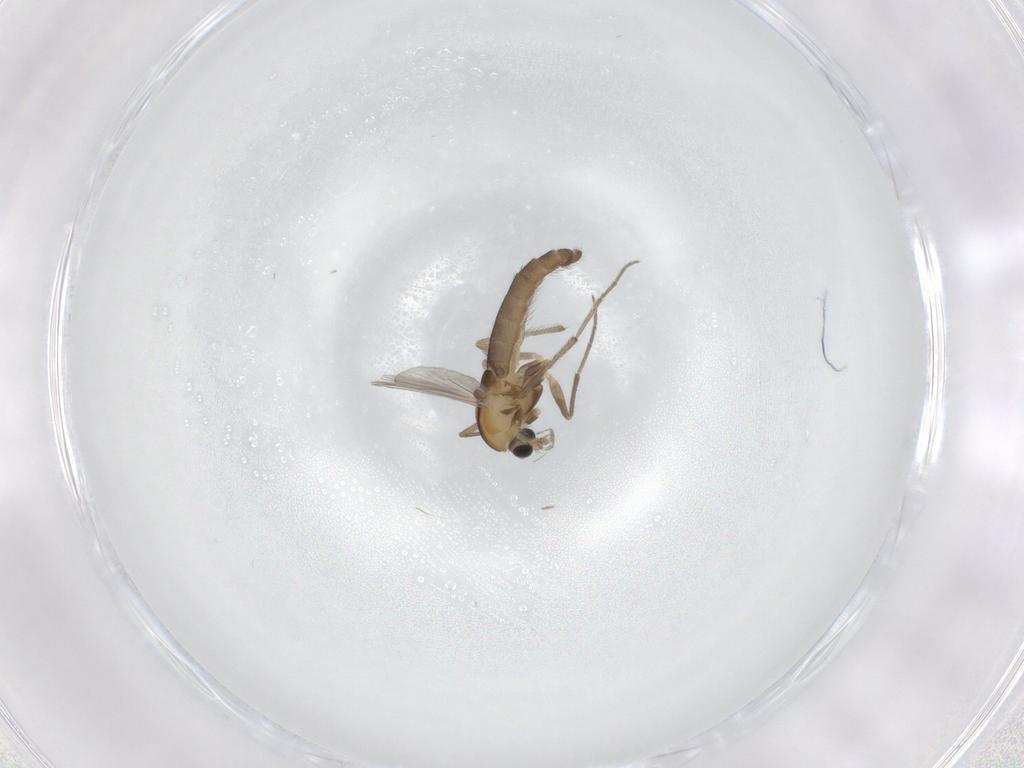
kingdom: Animalia
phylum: Arthropoda
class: Insecta
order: Diptera
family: Chironomidae
